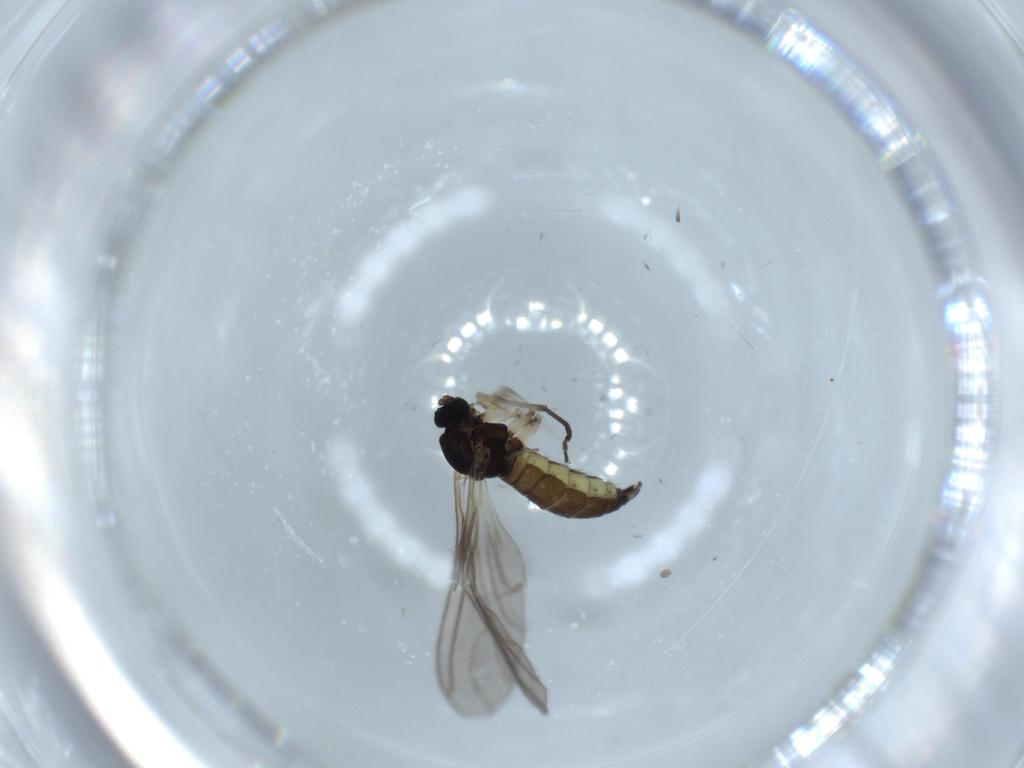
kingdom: Animalia
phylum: Arthropoda
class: Insecta
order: Diptera
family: Sciaridae
